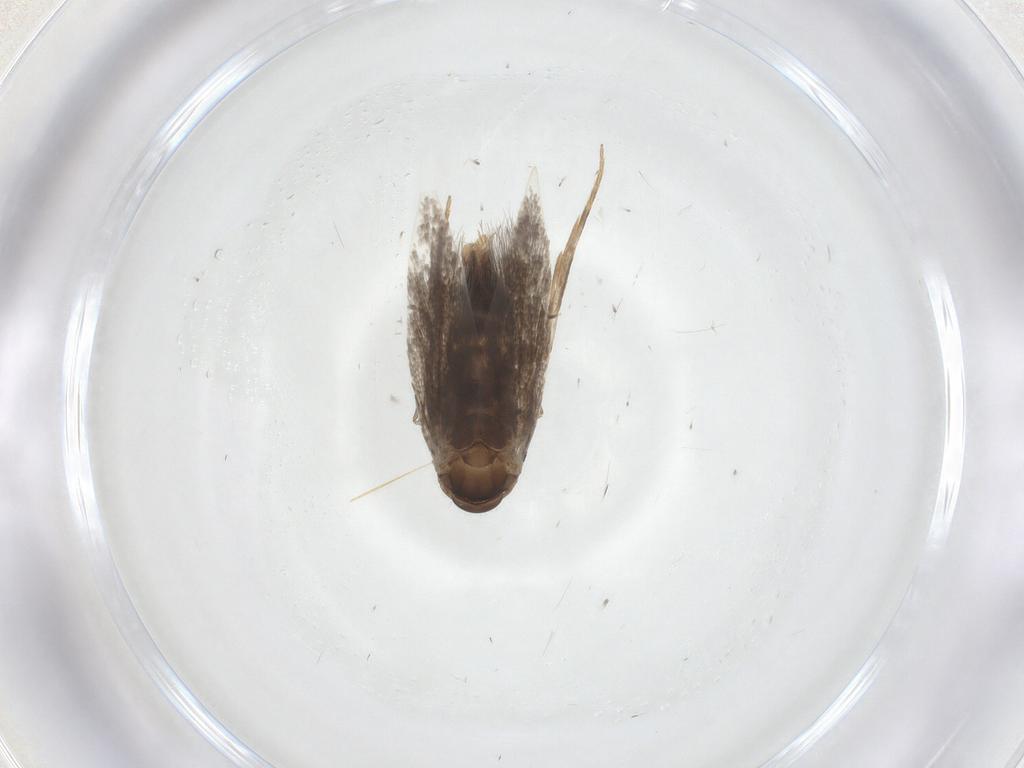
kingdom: Animalia
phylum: Arthropoda
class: Insecta
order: Lepidoptera
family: Elachistidae
